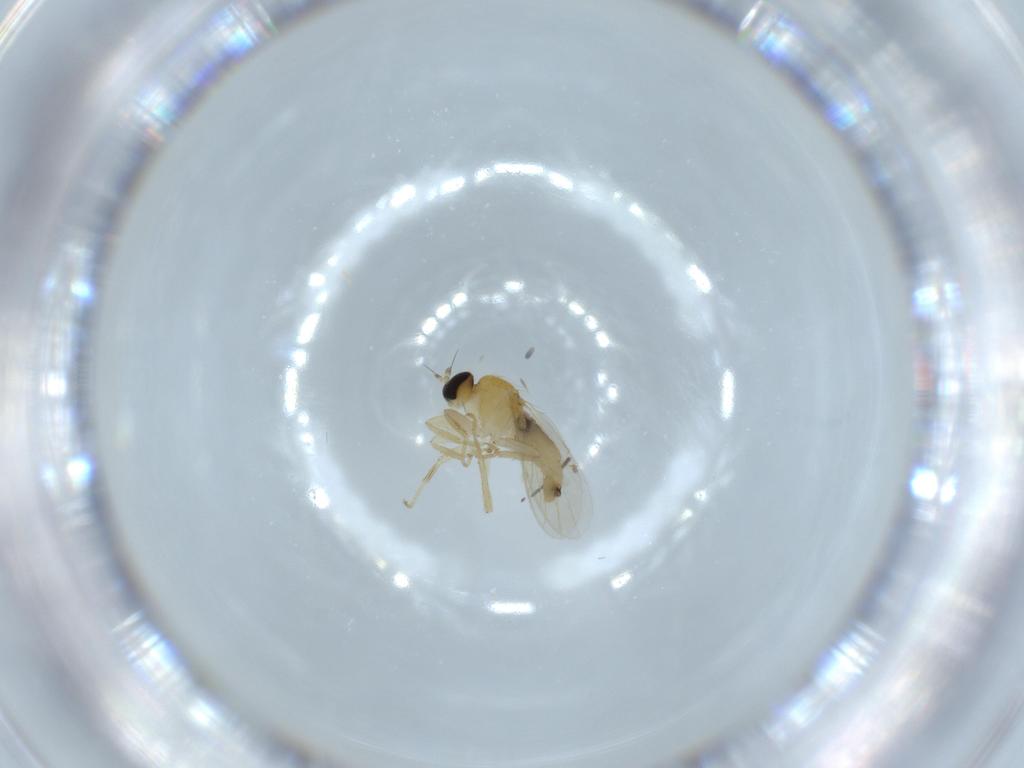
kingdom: Animalia
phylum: Arthropoda
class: Insecta
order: Diptera
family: Hybotidae
